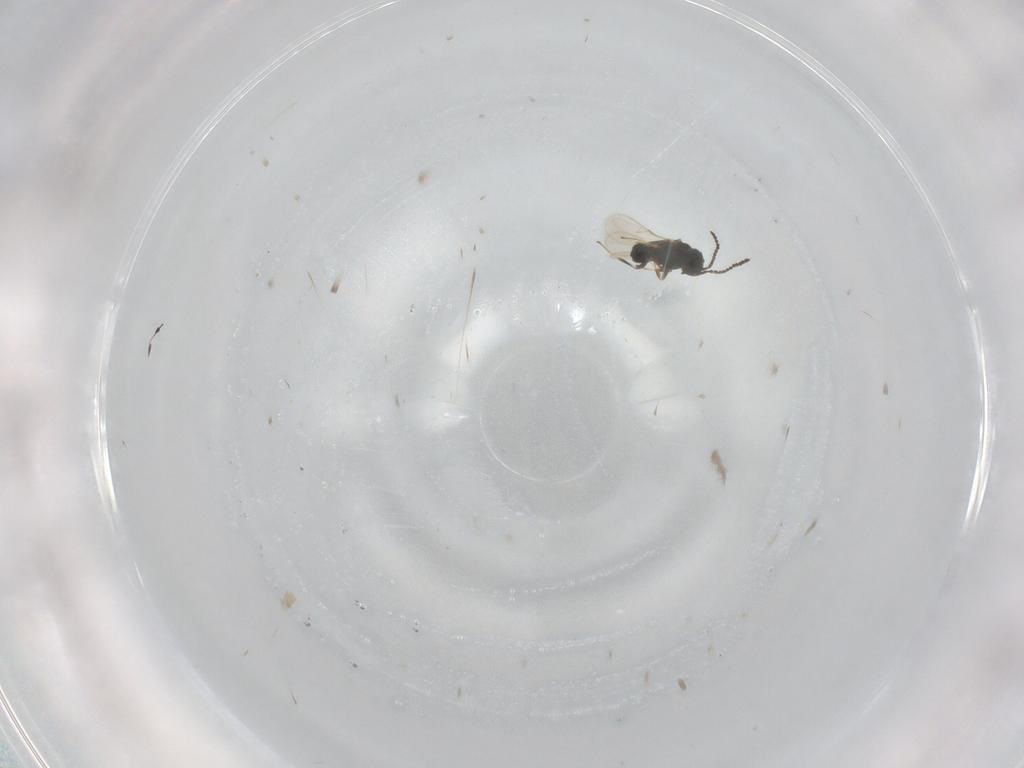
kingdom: Animalia
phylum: Arthropoda
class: Insecta
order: Hymenoptera
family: Scelionidae
